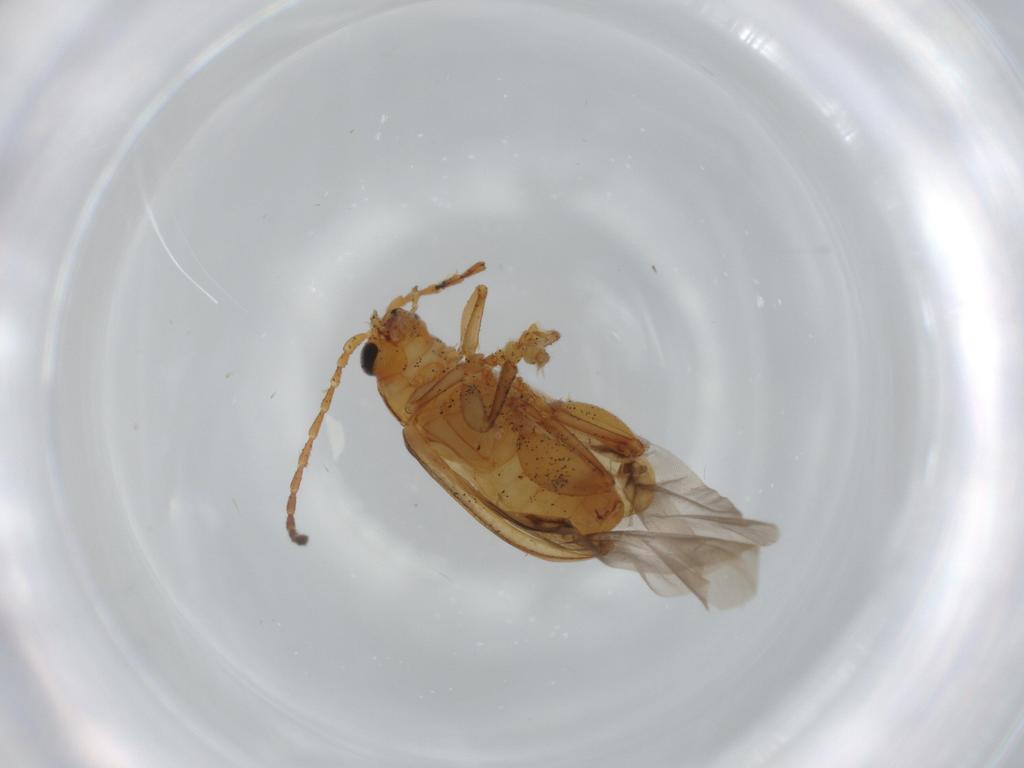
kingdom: Animalia
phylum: Arthropoda
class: Insecta
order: Coleoptera
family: Chrysomelidae
